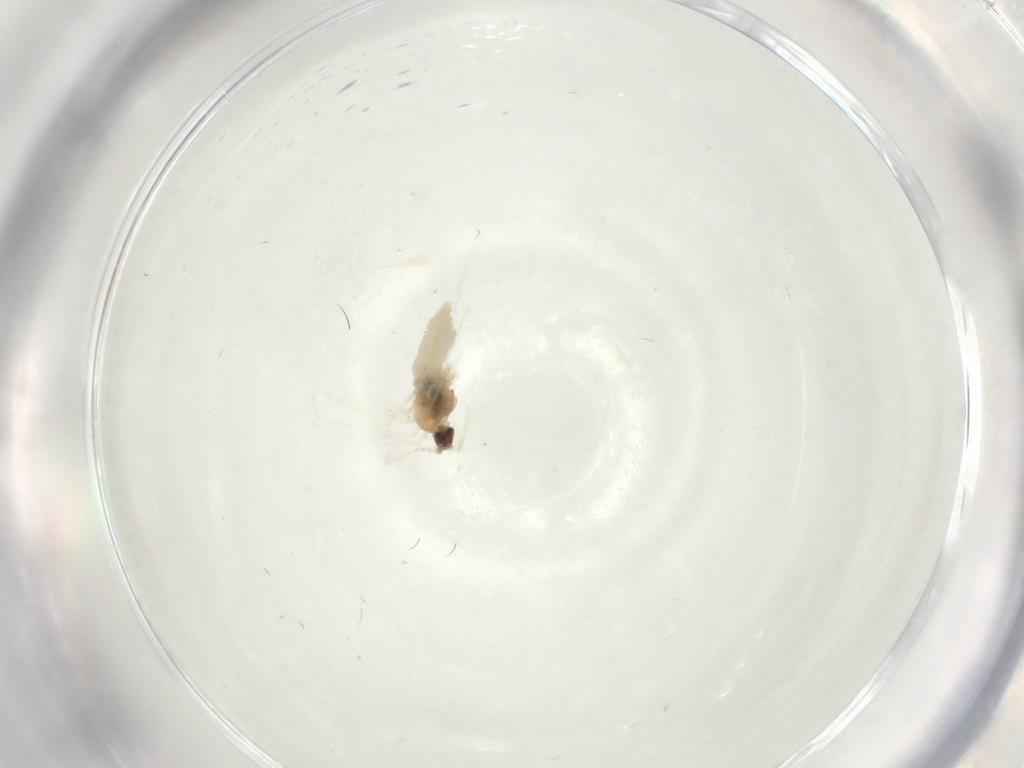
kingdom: Animalia
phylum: Arthropoda
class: Insecta
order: Diptera
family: Cecidomyiidae
